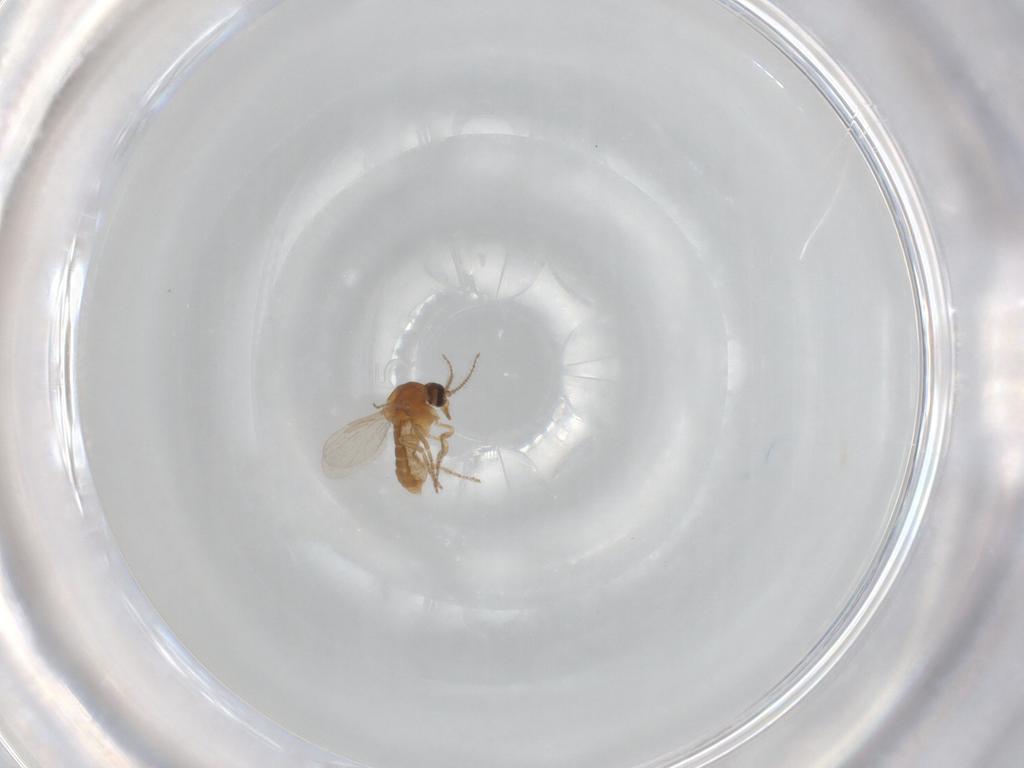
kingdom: Animalia
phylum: Arthropoda
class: Insecta
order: Diptera
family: Ceratopogonidae
